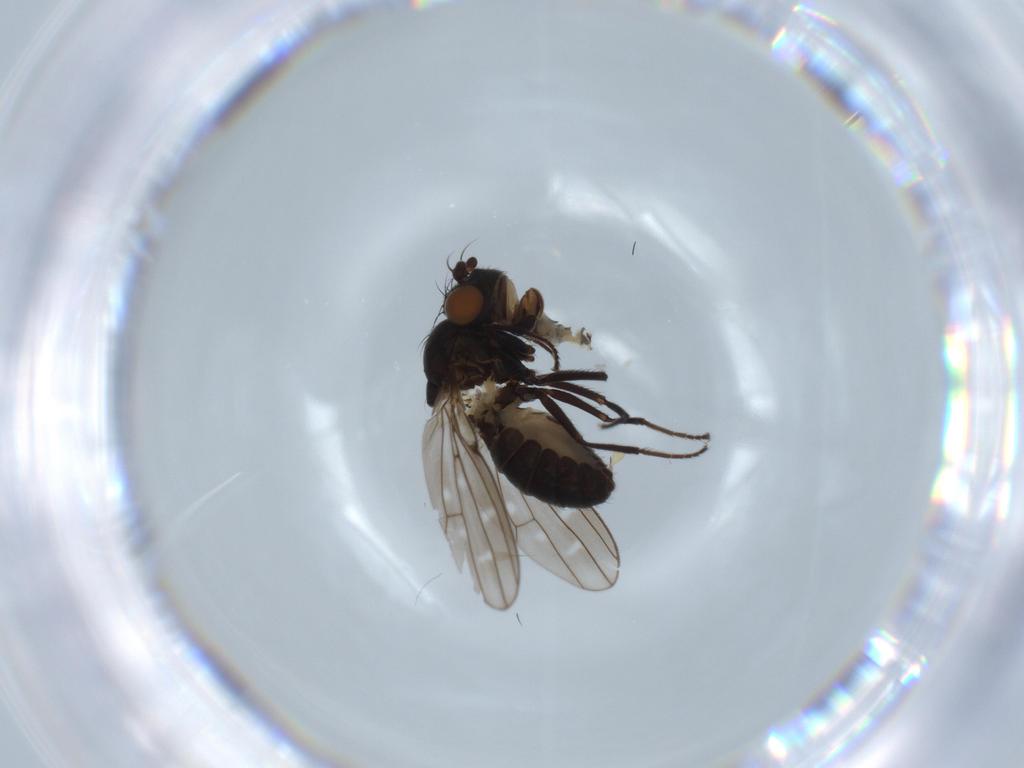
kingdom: Animalia
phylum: Arthropoda
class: Insecta
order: Diptera
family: Ephydridae
